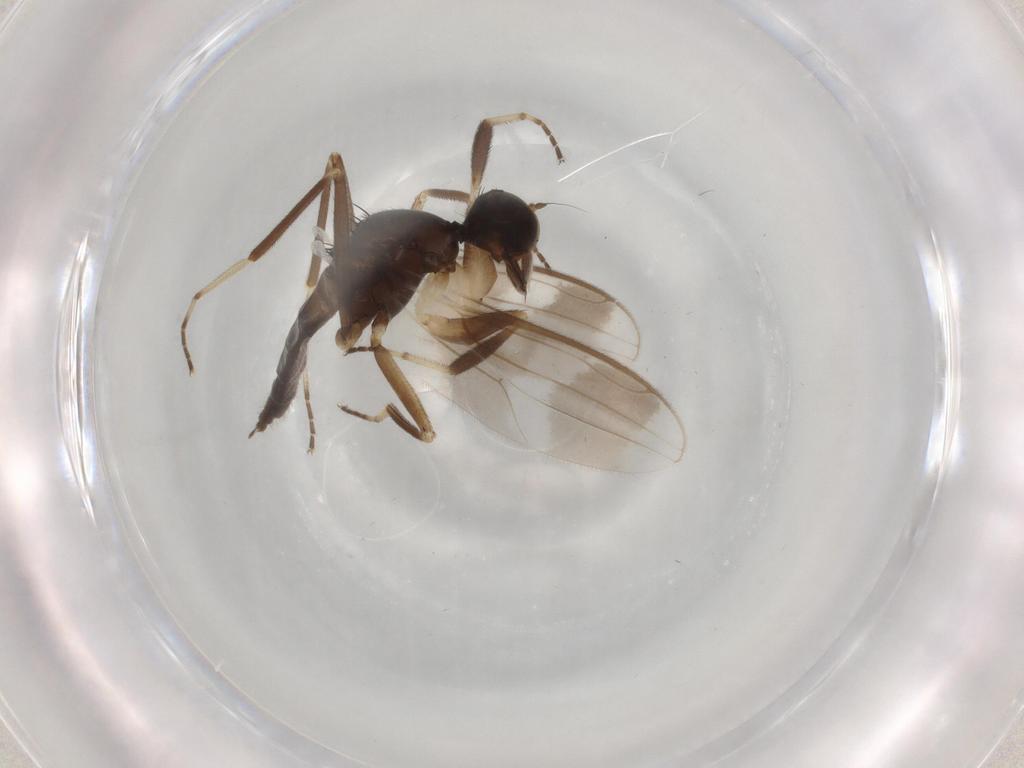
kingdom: Animalia
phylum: Arthropoda
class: Insecta
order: Diptera
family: Hybotidae
